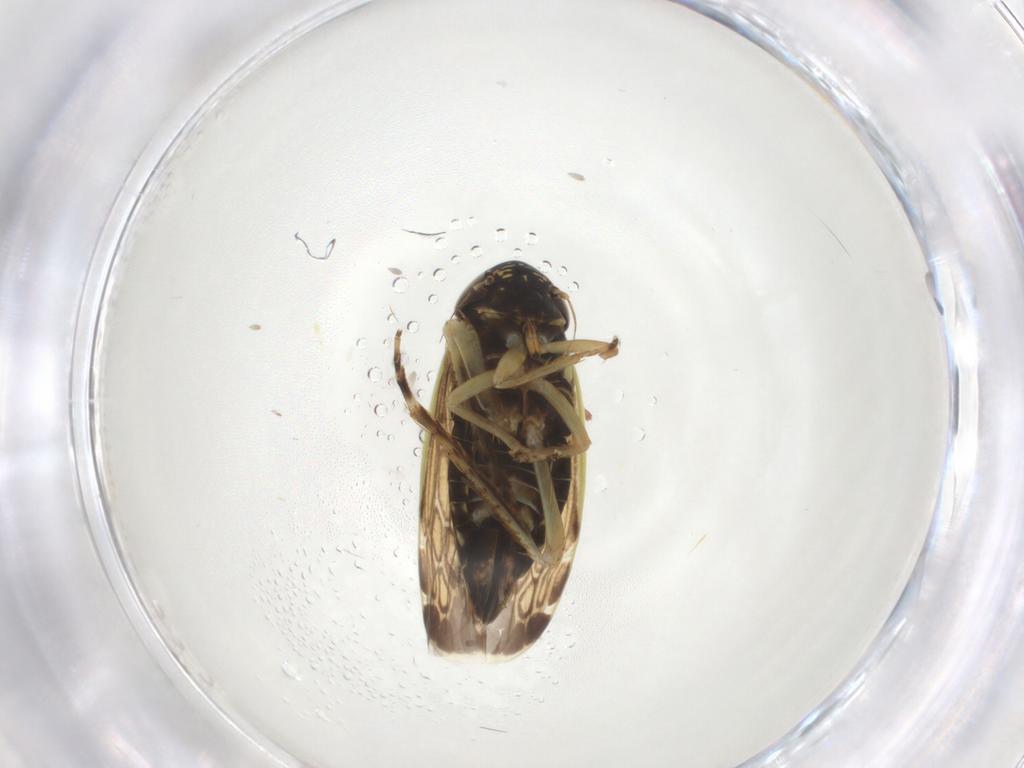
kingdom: Animalia
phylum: Arthropoda
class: Insecta
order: Hemiptera
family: Cicadellidae
